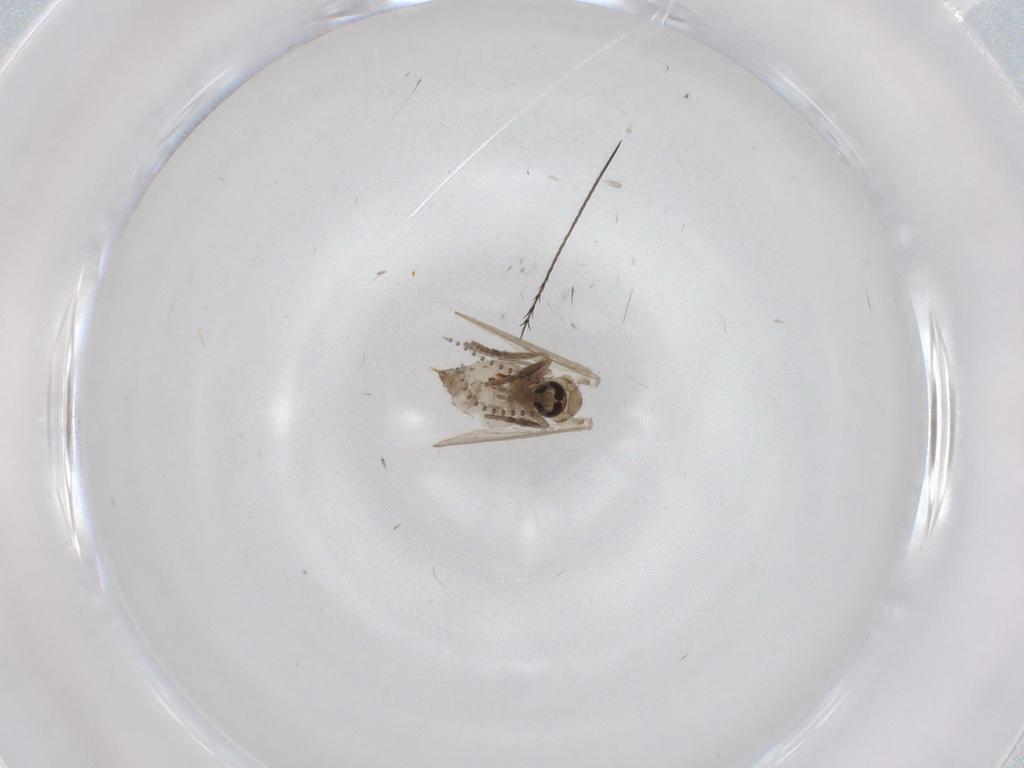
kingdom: Animalia
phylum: Arthropoda
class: Insecta
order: Diptera
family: Psychodidae
